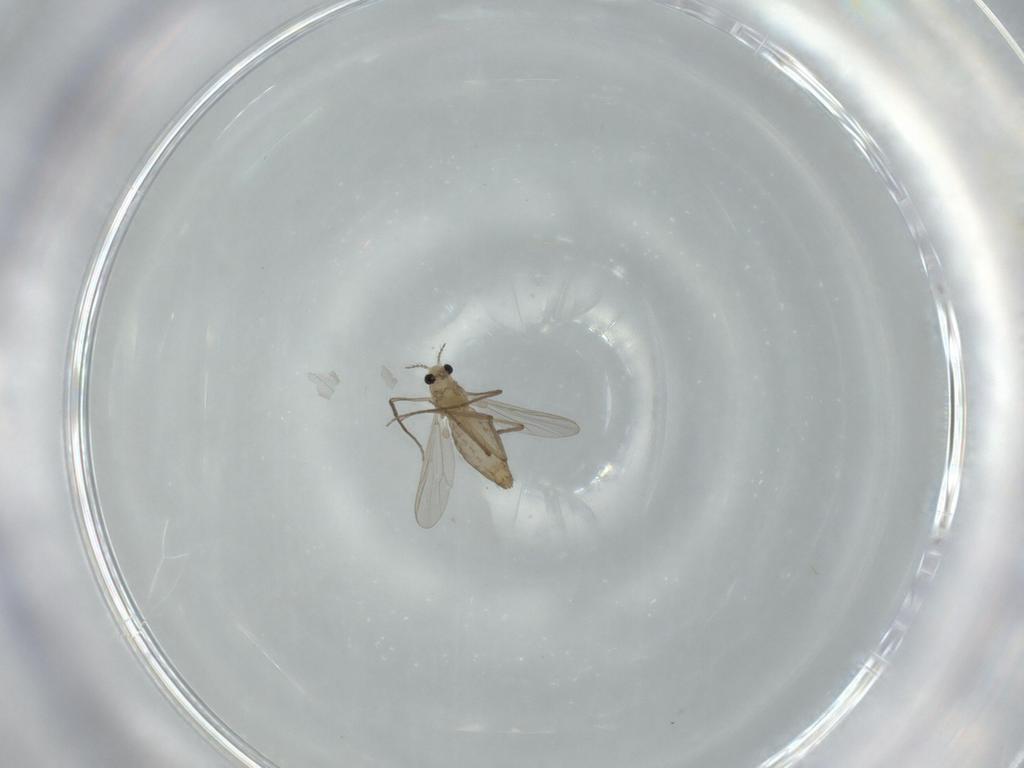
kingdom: Animalia
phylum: Arthropoda
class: Insecta
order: Diptera
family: Chironomidae
